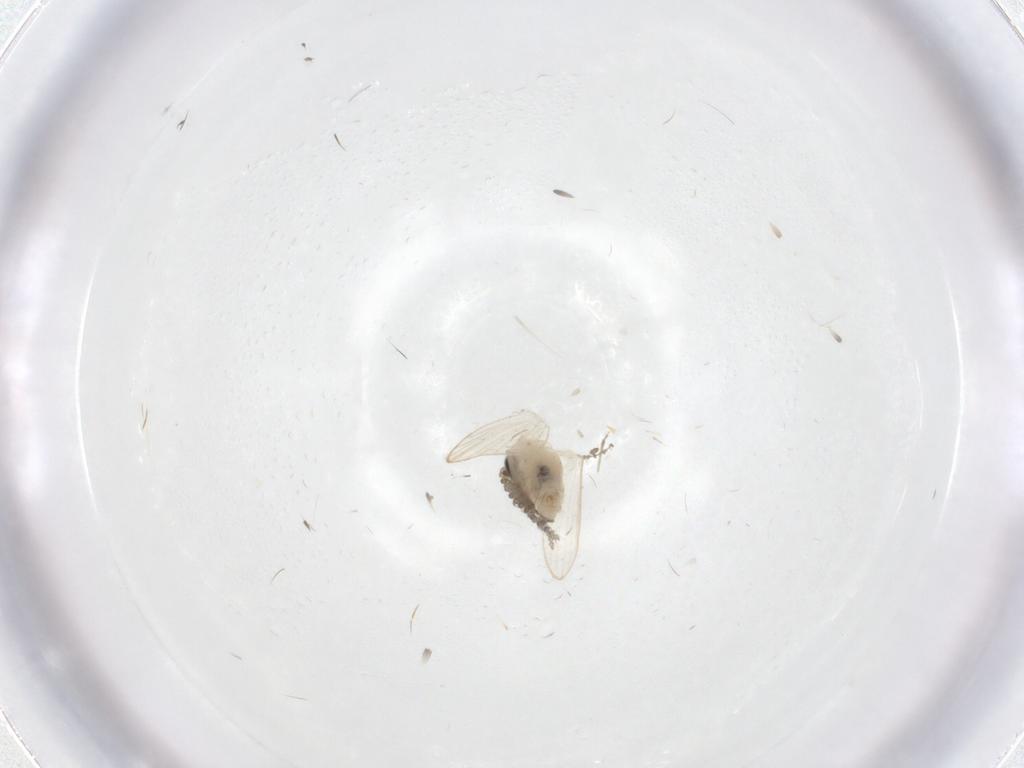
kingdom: Animalia
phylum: Arthropoda
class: Insecta
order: Diptera
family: Psychodidae
